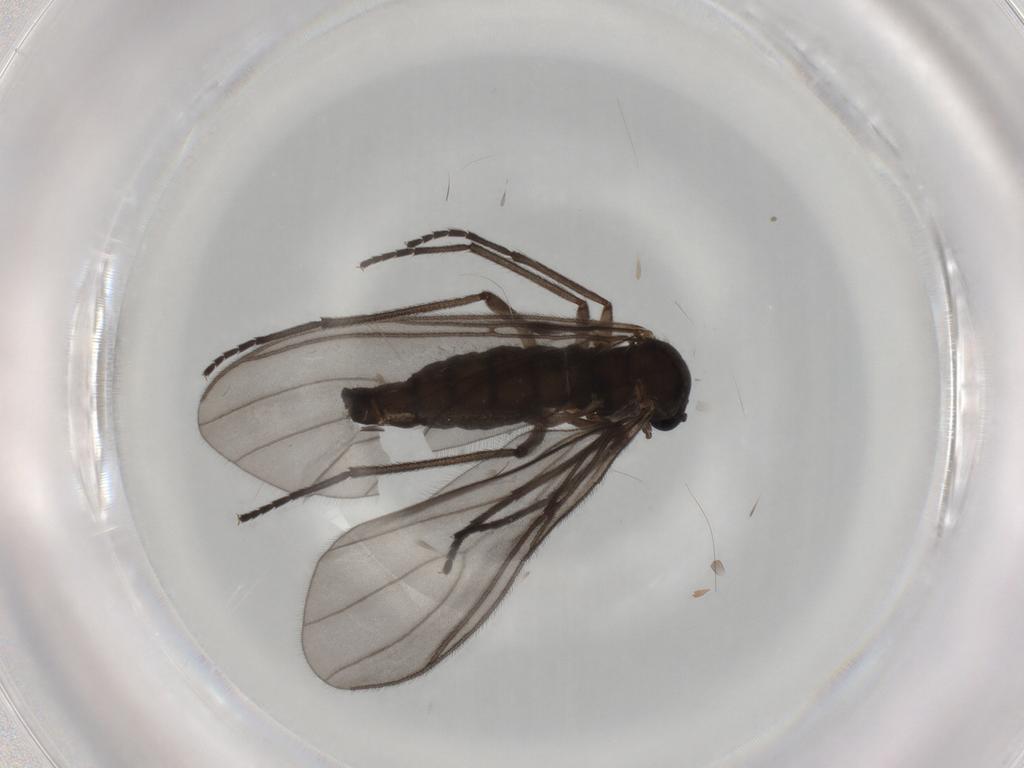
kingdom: Animalia
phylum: Arthropoda
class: Insecta
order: Diptera
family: Sciaridae
